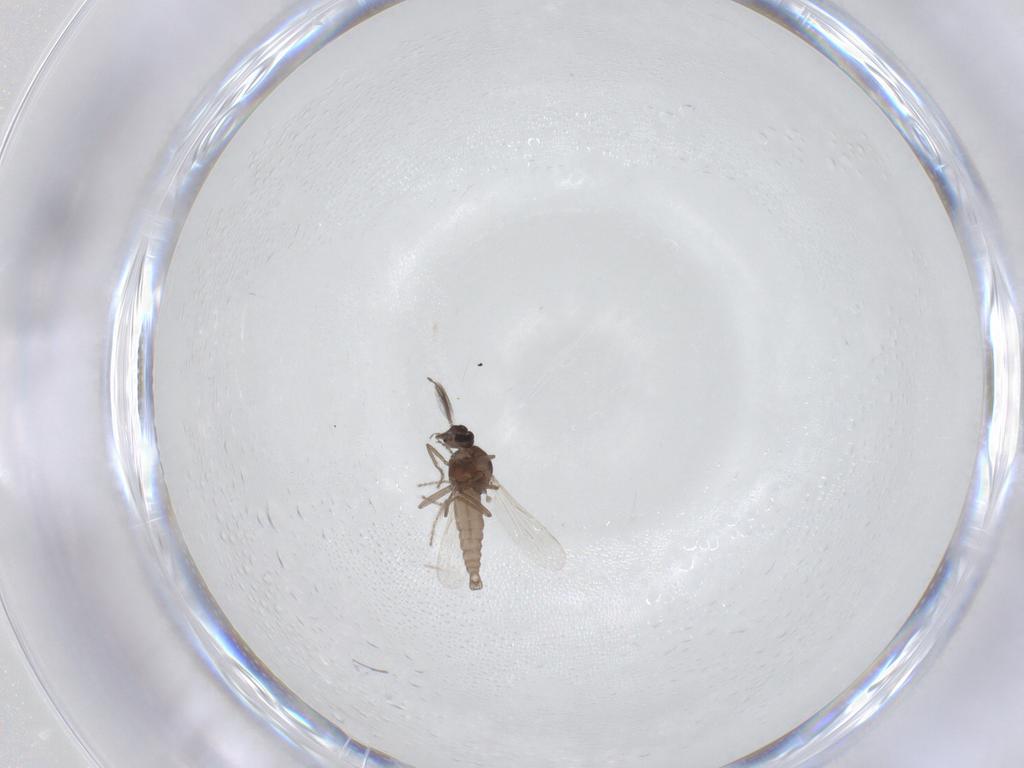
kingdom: Animalia
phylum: Arthropoda
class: Insecta
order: Diptera
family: Ceratopogonidae
